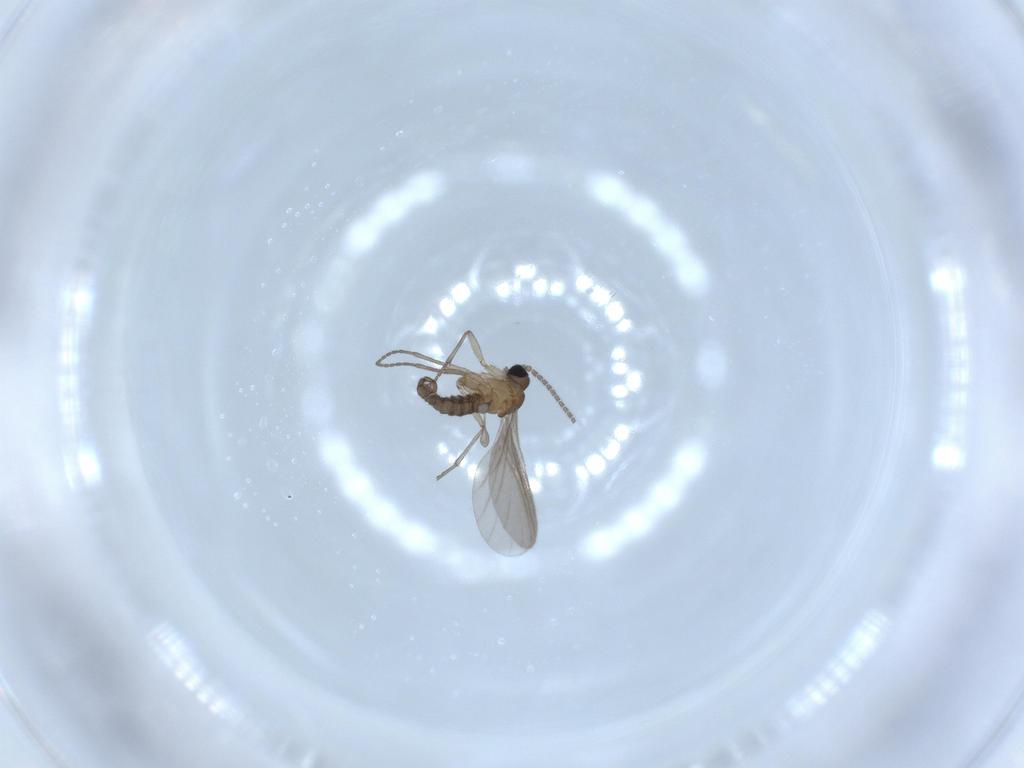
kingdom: Animalia
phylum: Arthropoda
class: Insecta
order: Diptera
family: Sciaridae
